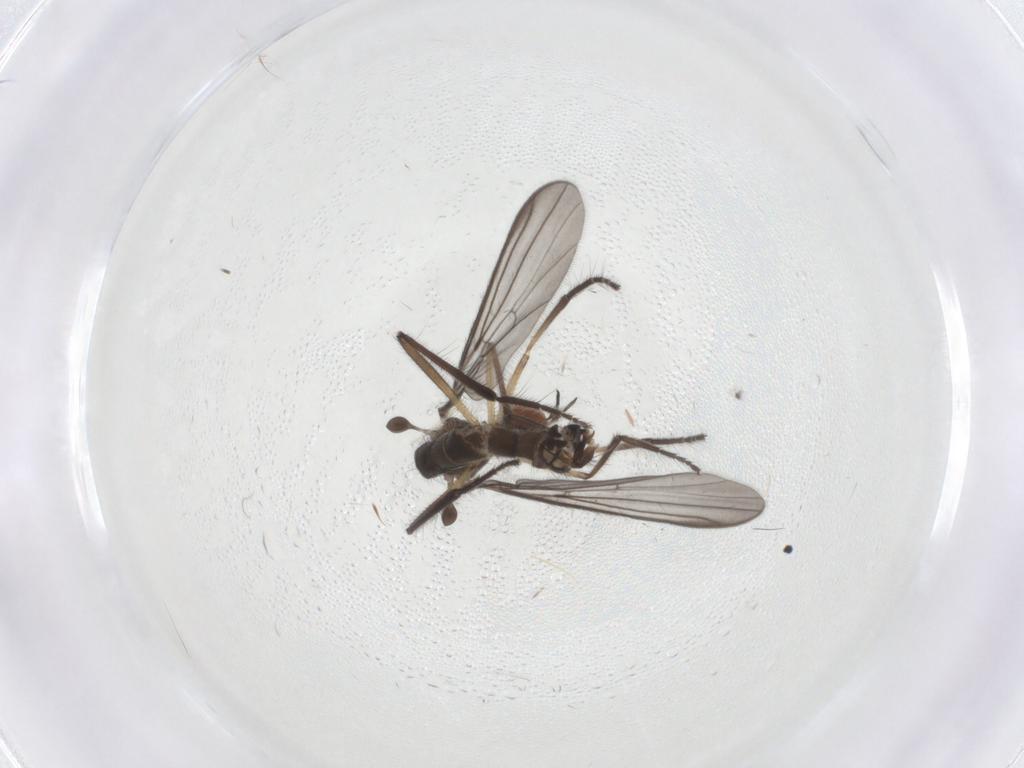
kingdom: Animalia
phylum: Arthropoda
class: Insecta
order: Diptera
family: Empididae
